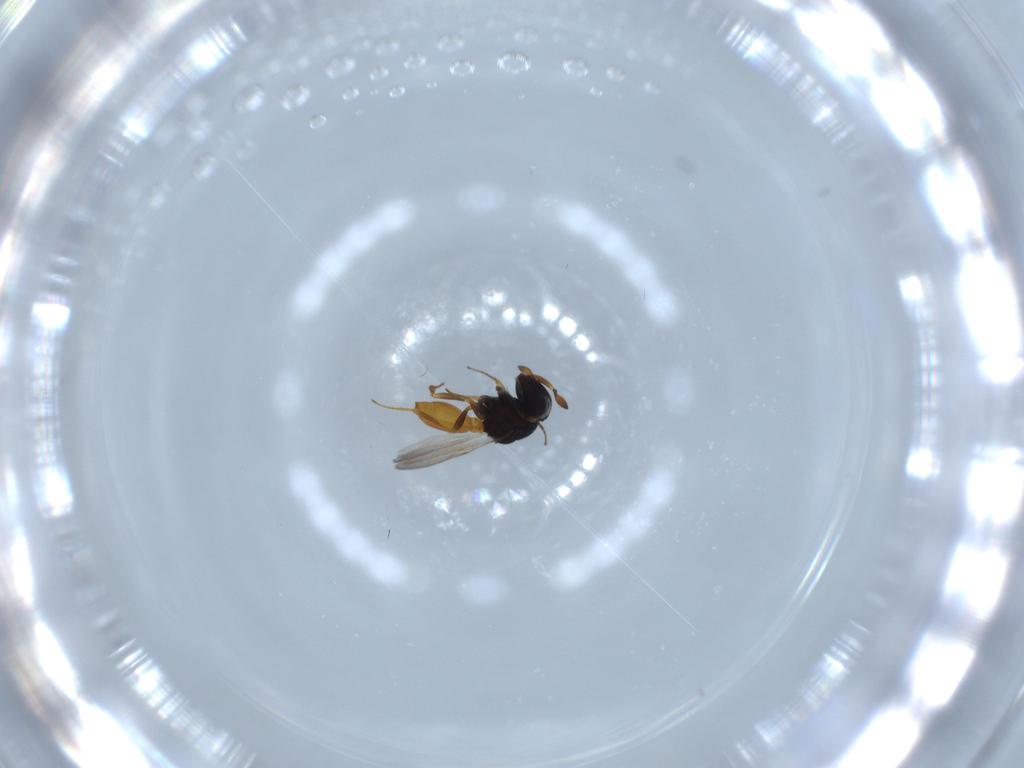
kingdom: Animalia
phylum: Arthropoda
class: Insecta
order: Hymenoptera
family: Scelionidae
